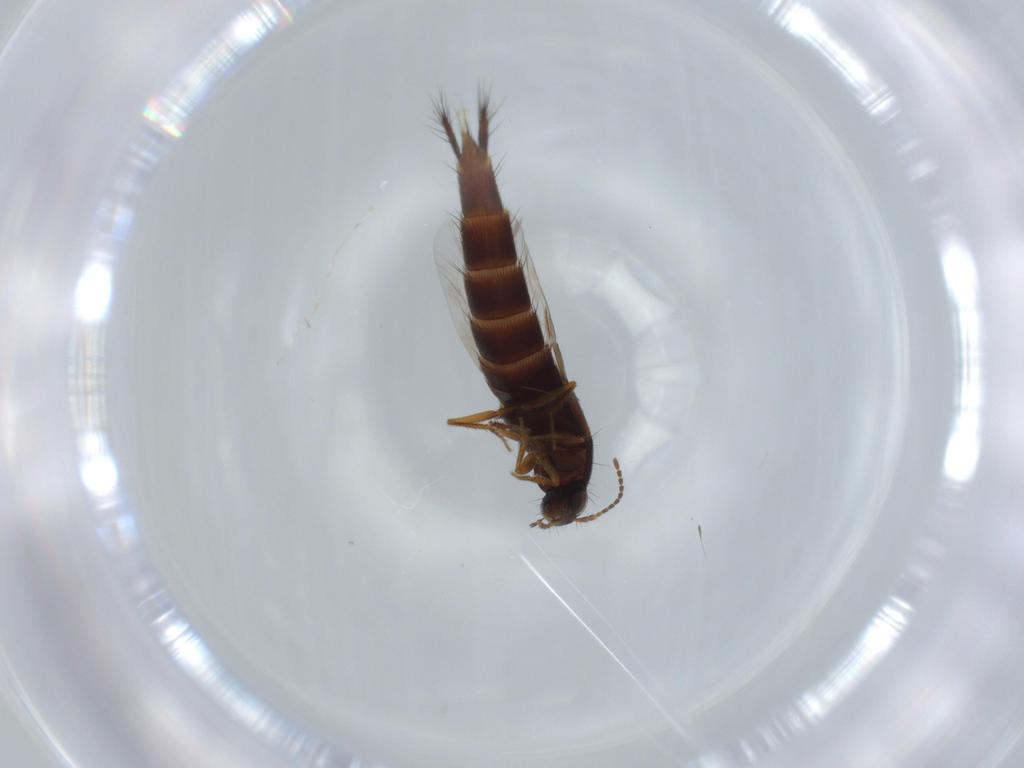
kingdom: Animalia
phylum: Arthropoda
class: Insecta
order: Coleoptera
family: Staphylinidae
